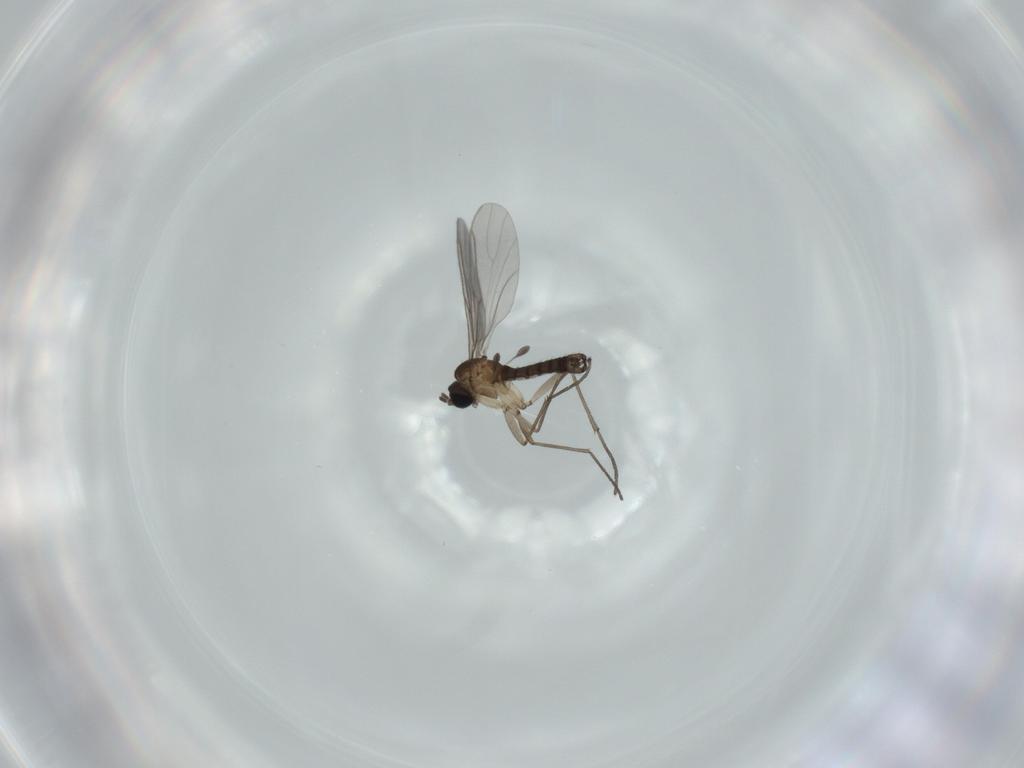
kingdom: Animalia
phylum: Arthropoda
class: Insecta
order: Diptera
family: Sciaridae
